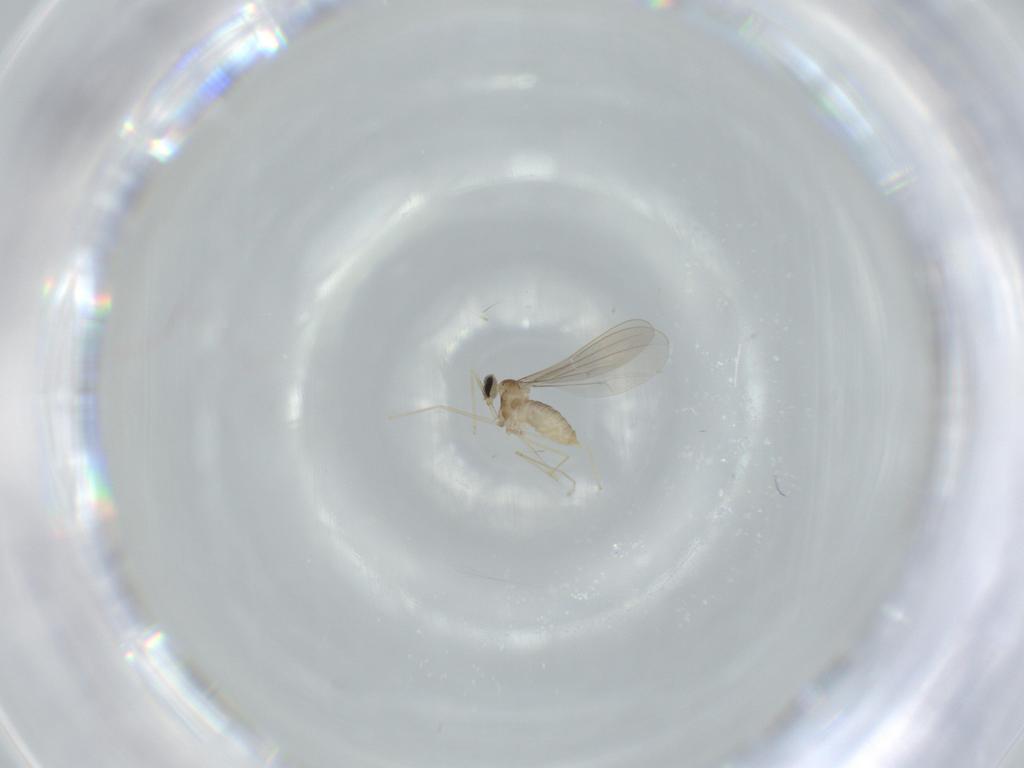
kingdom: Animalia
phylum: Arthropoda
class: Insecta
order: Diptera
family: Cecidomyiidae
